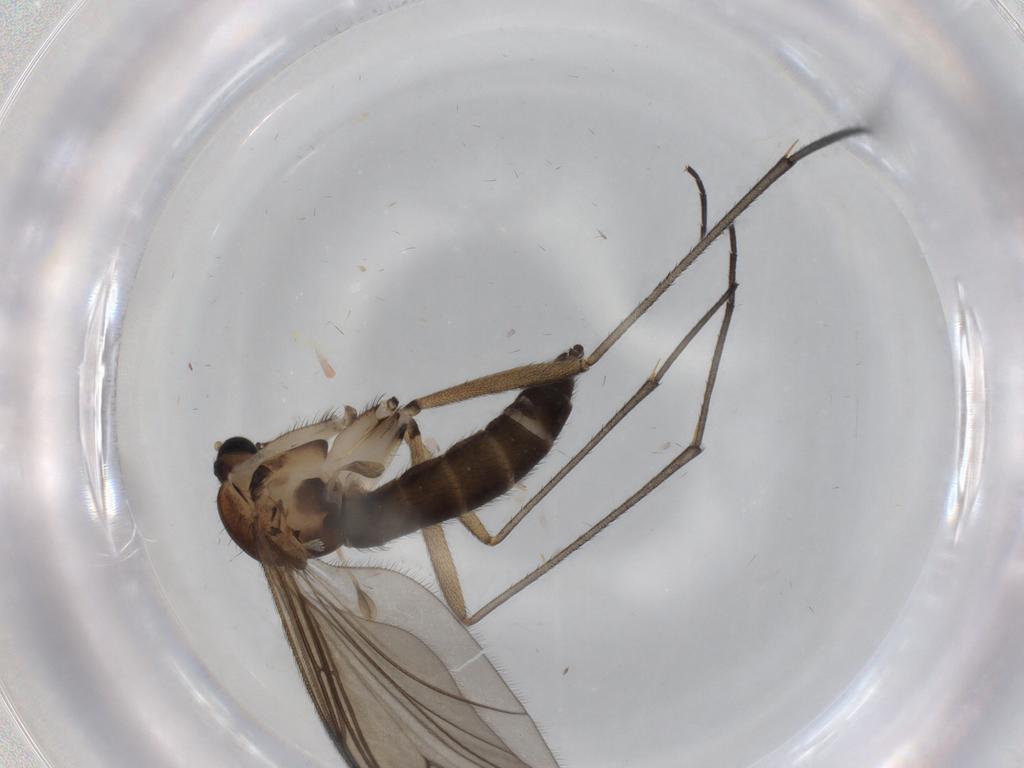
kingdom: Animalia
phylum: Arthropoda
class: Insecta
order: Diptera
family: Sciaridae
